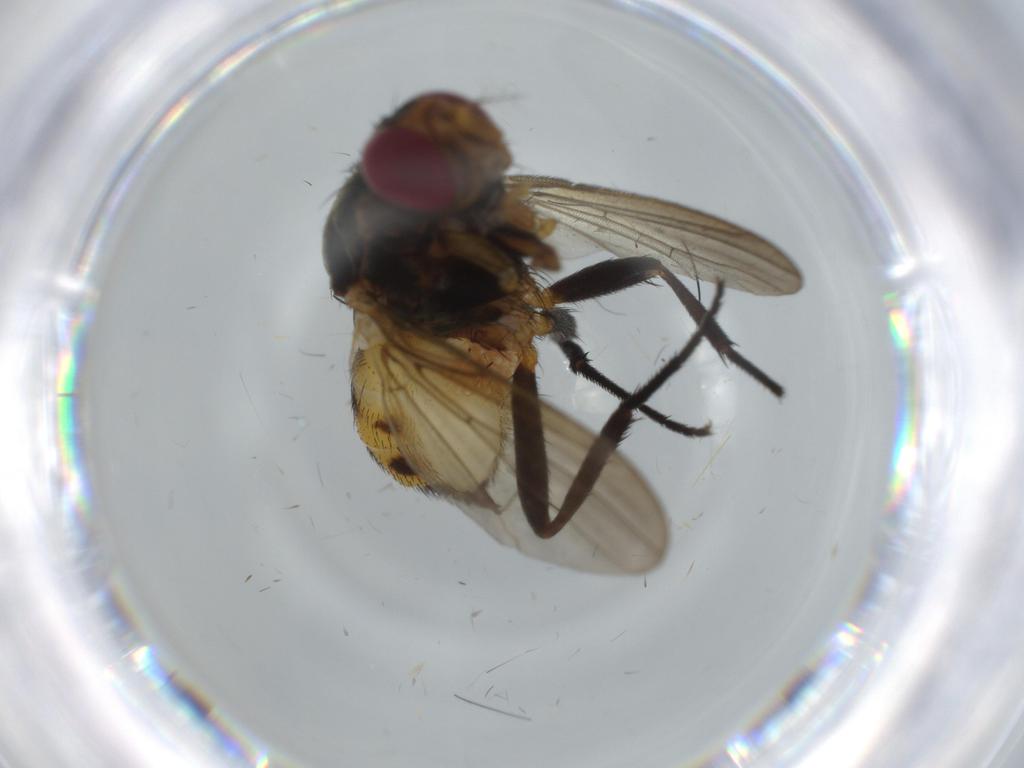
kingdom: Animalia
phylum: Arthropoda
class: Insecta
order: Diptera
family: Anthomyiidae
